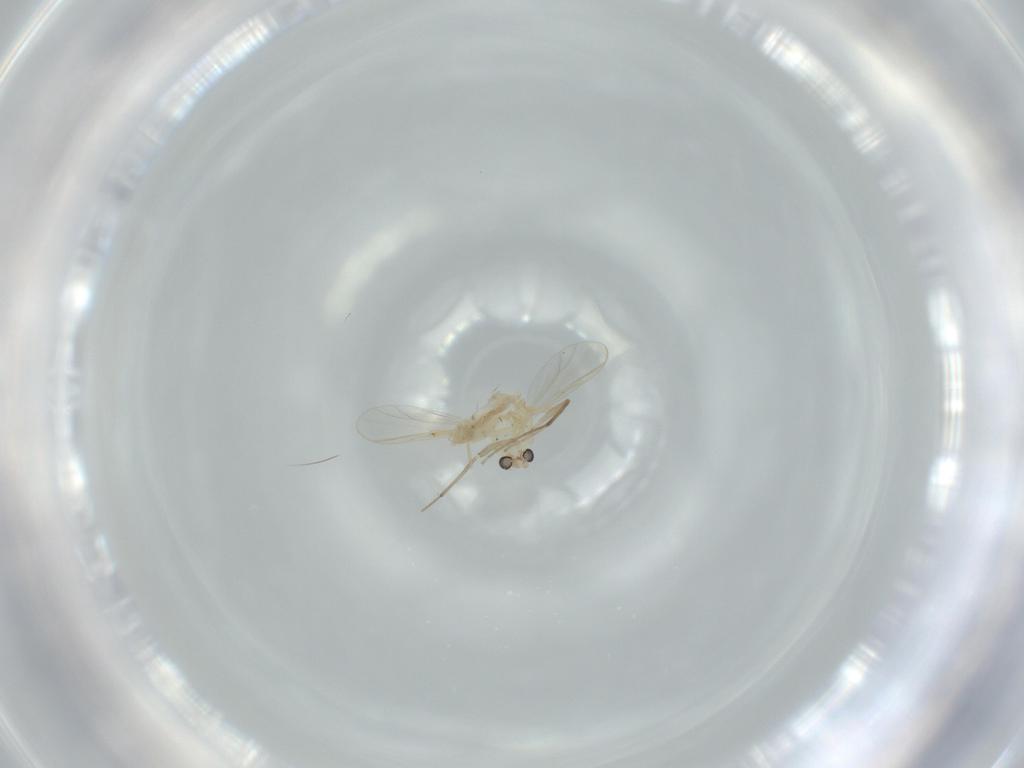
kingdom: Animalia
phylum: Arthropoda
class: Insecta
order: Diptera
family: Chironomidae
